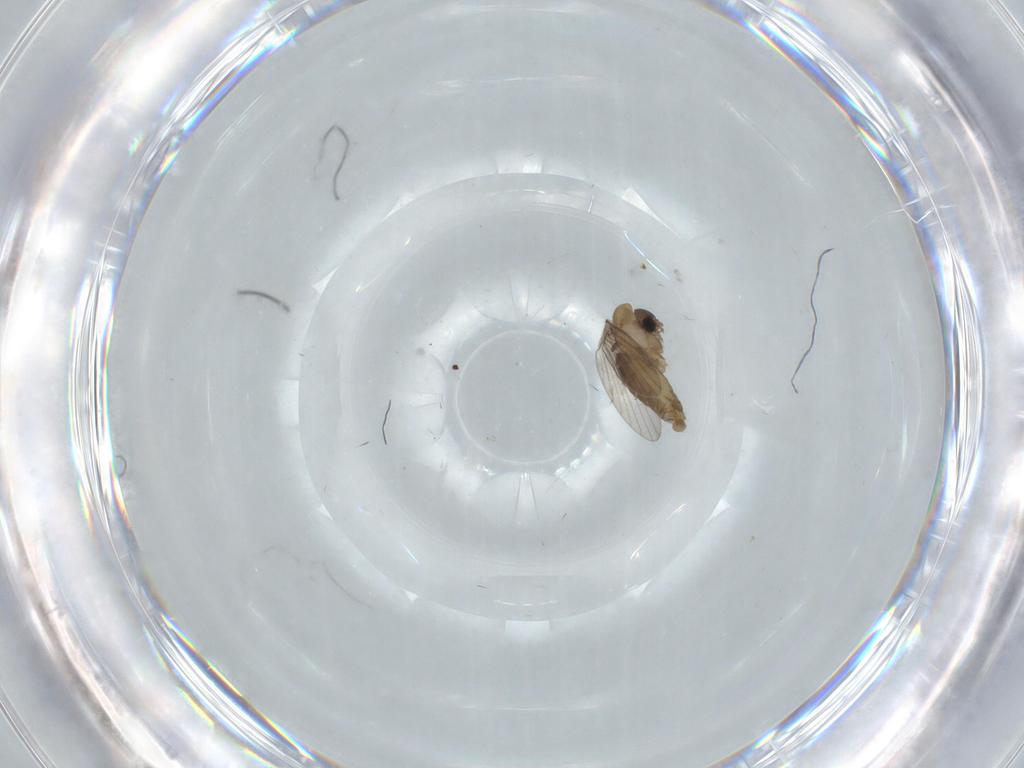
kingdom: Animalia
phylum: Arthropoda
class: Insecta
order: Diptera
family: Psychodidae
